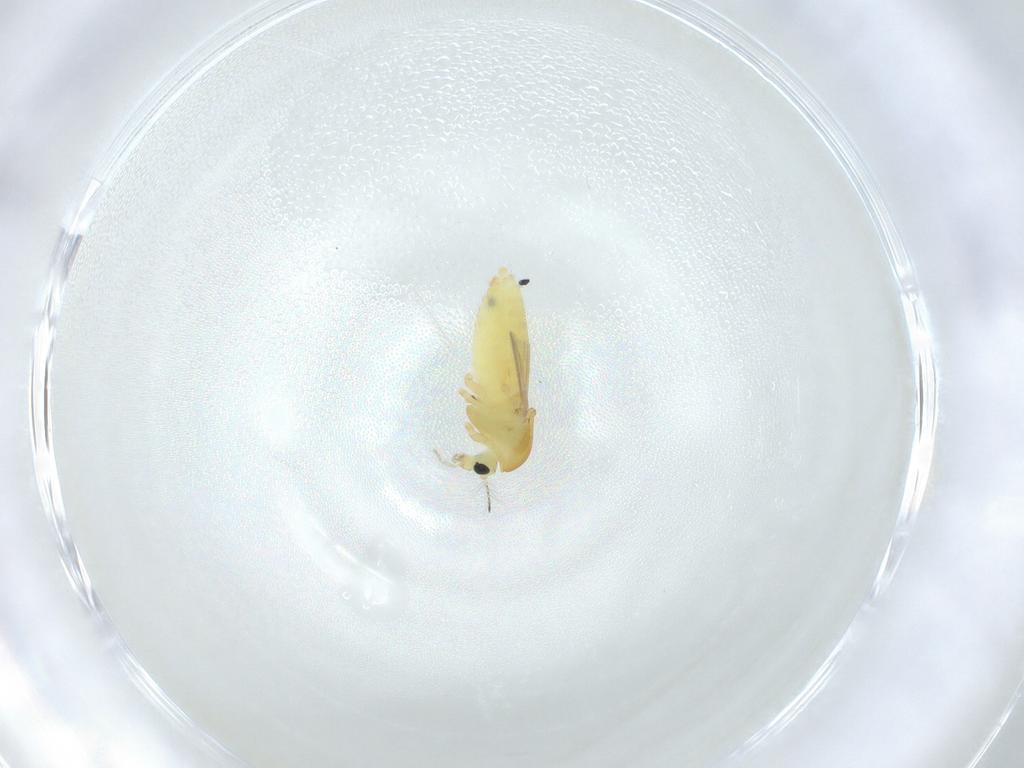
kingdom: Animalia
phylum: Arthropoda
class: Insecta
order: Diptera
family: Chironomidae
